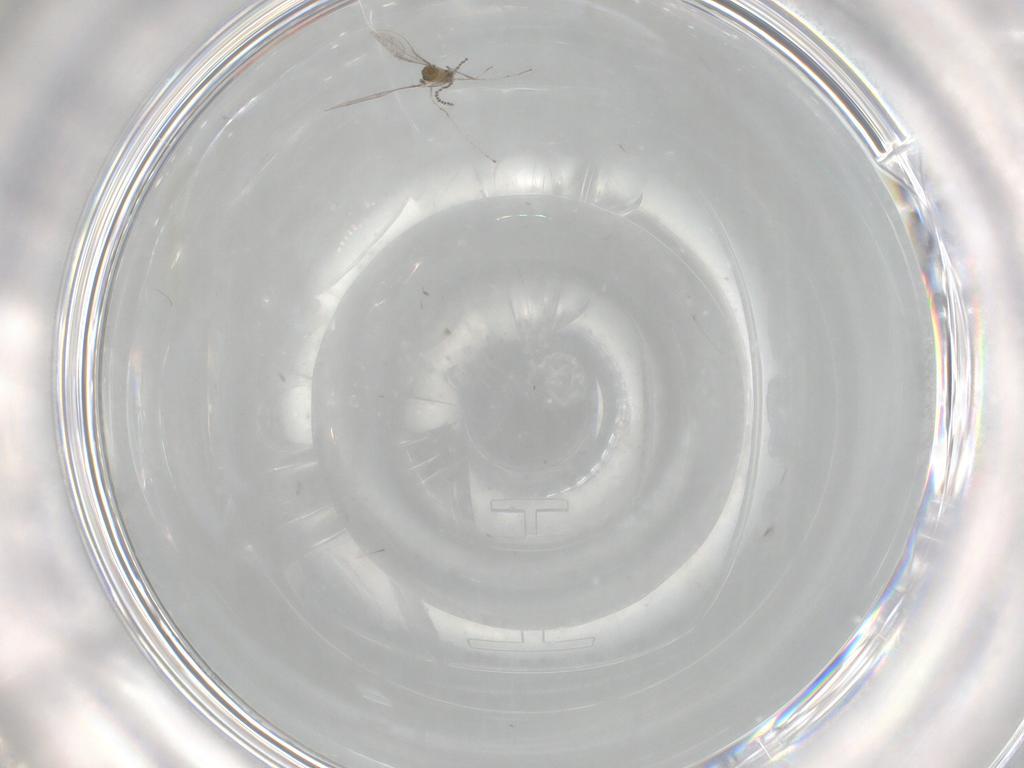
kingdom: Animalia
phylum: Arthropoda
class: Insecta
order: Diptera
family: Cecidomyiidae
